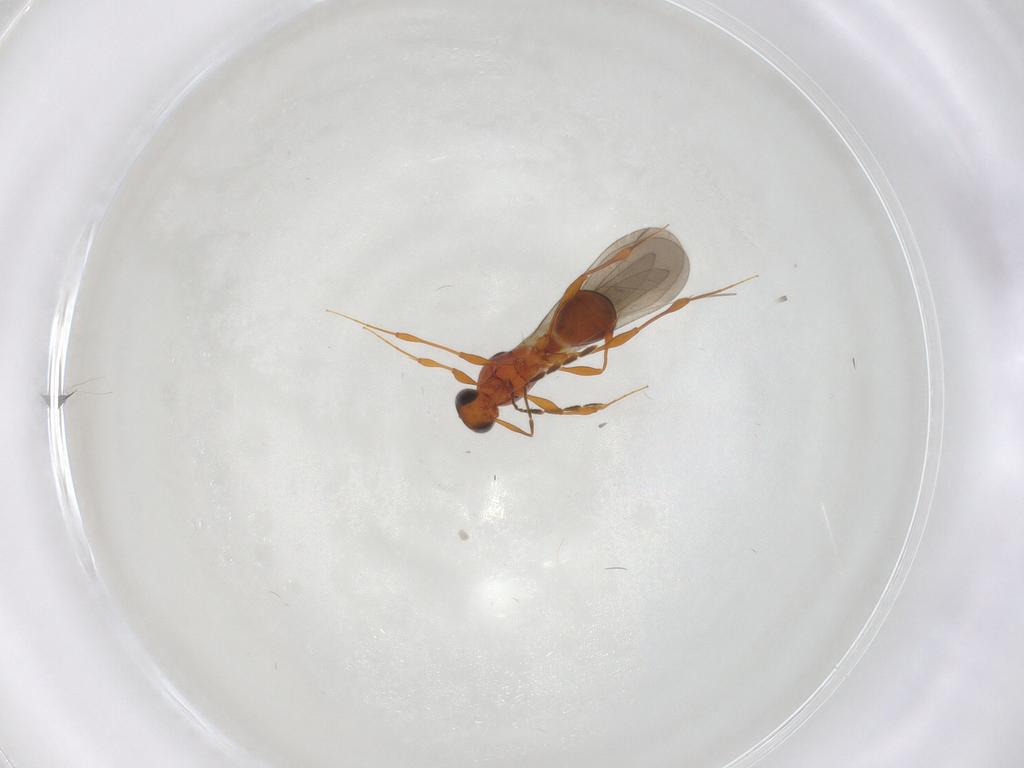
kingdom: Animalia
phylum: Arthropoda
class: Insecta
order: Hymenoptera
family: Platygastridae
